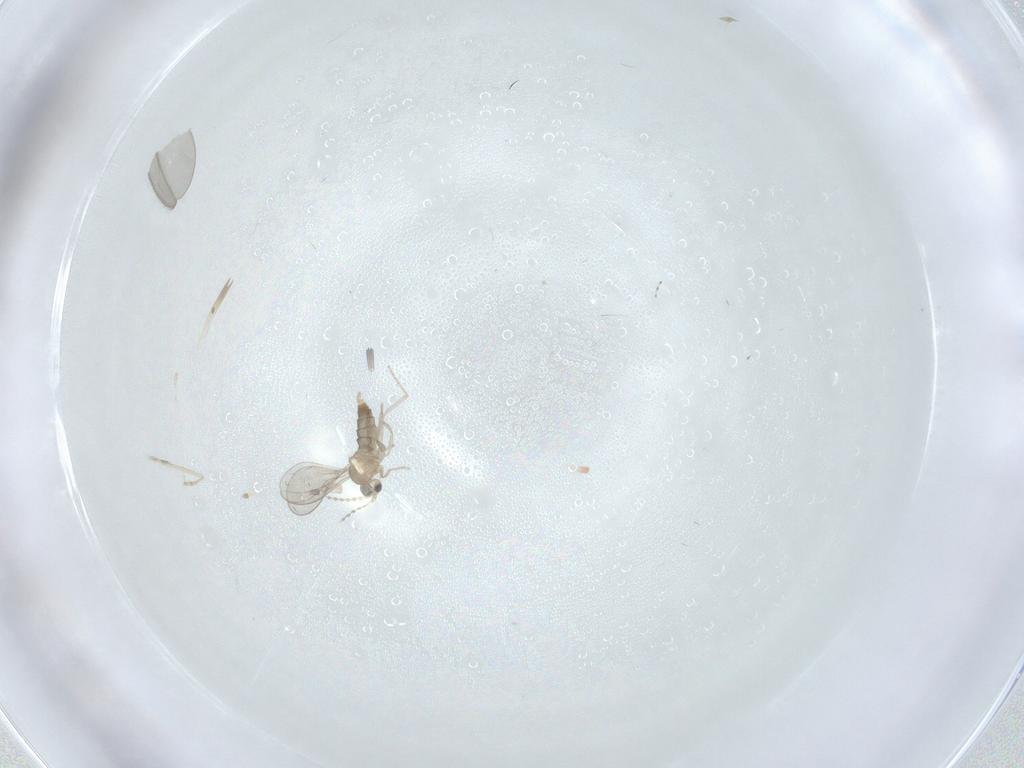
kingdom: Animalia
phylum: Arthropoda
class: Insecta
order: Diptera
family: Cecidomyiidae
